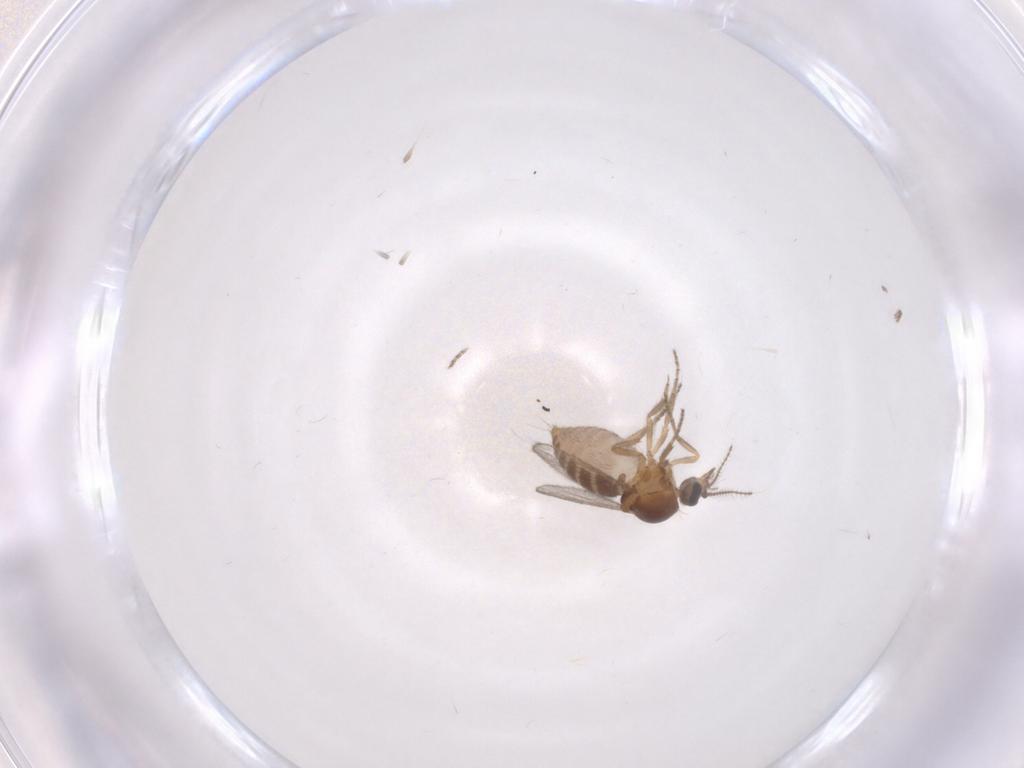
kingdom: Animalia
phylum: Arthropoda
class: Insecta
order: Diptera
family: Ceratopogonidae
